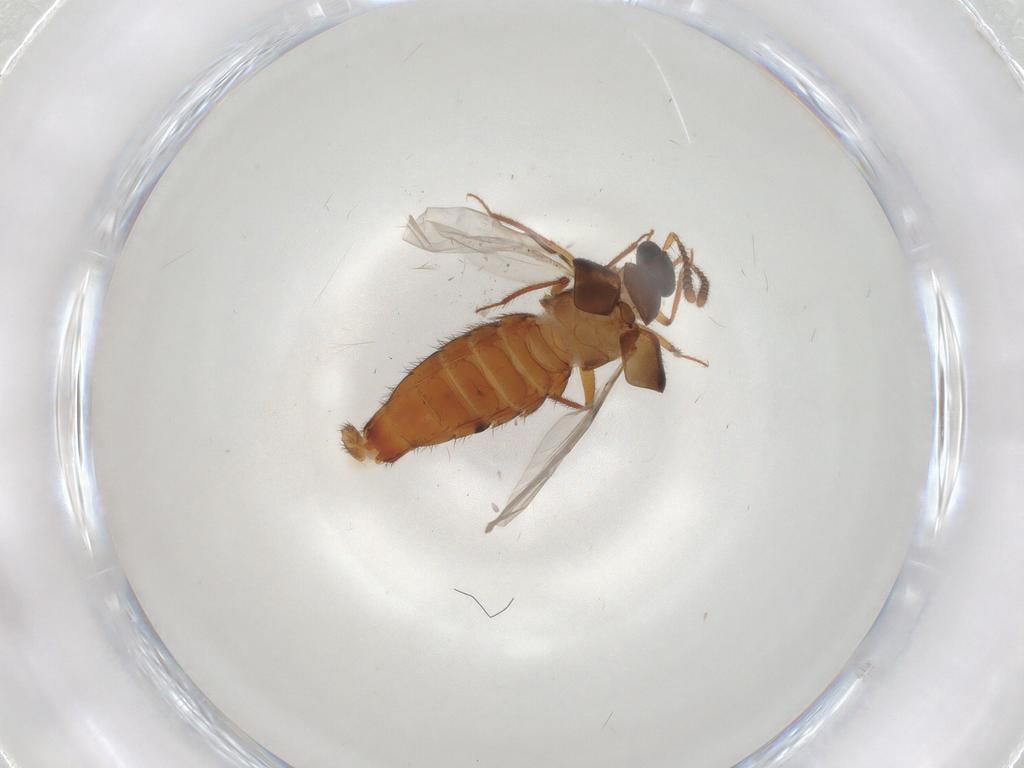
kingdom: Animalia
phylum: Arthropoda
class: Insecta
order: Coleoptera
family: Staphylinidae
